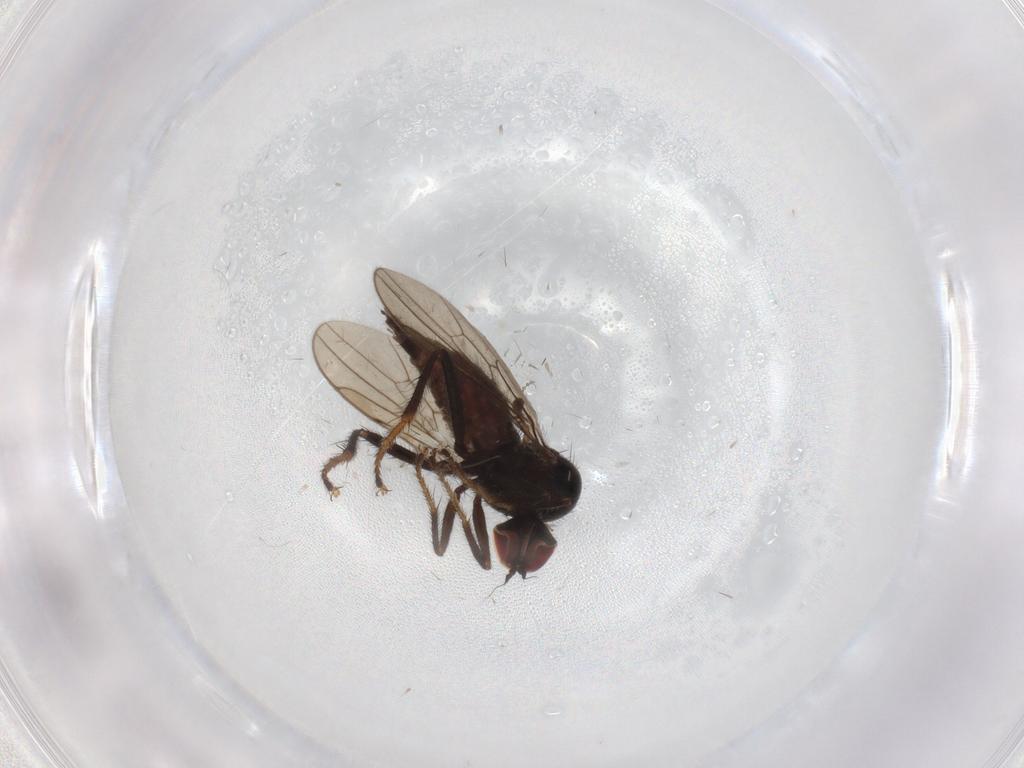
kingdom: Animalia
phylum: Arthropoda
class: Insecta
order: Diptera
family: Hybotidae
